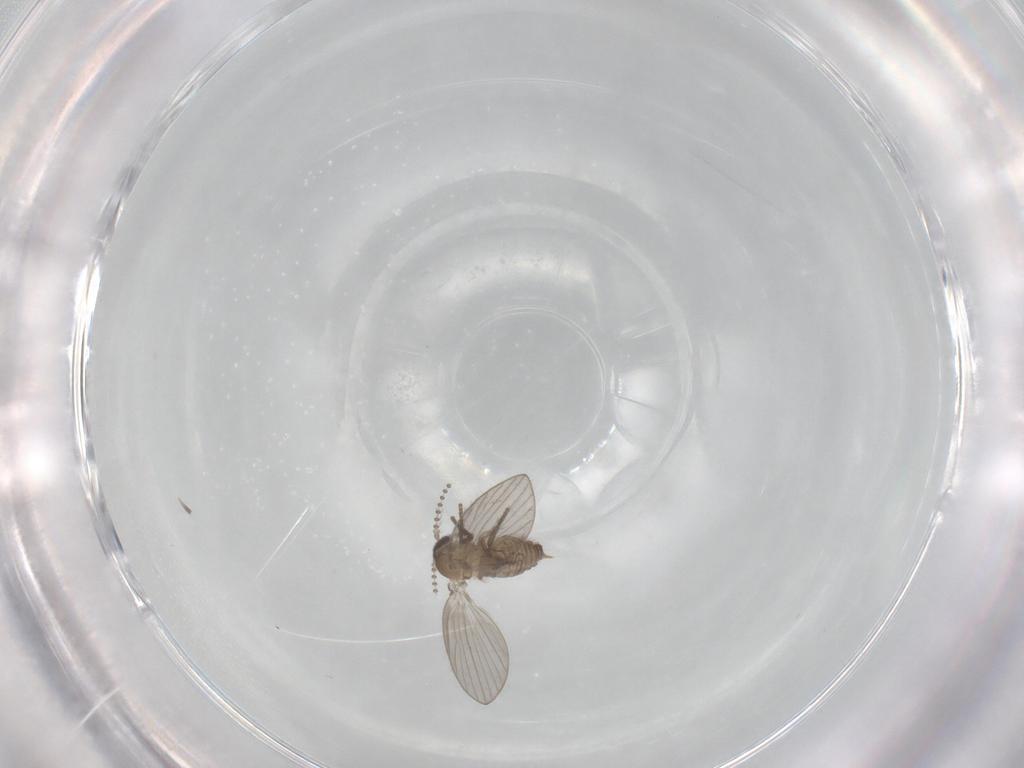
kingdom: Animalia
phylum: Arthropoda
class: Insecta
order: Diptera
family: Psychodidae
